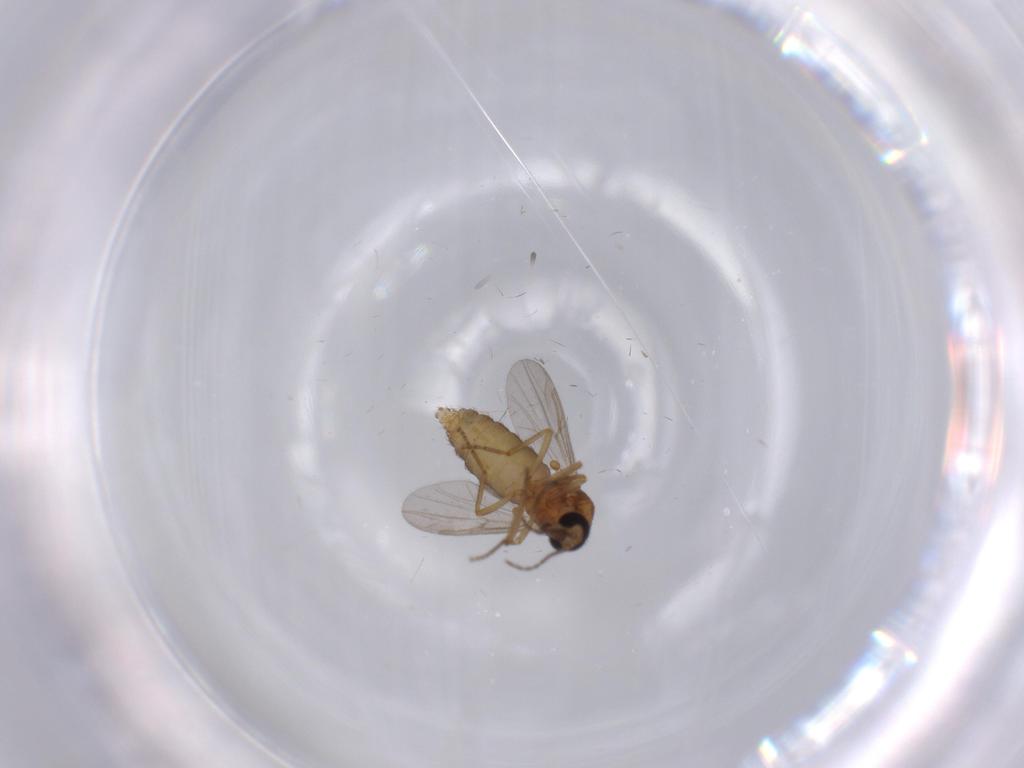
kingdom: Animalia
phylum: Arthropoda
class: Insecta
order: Diptera
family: Ceratopogonidae
